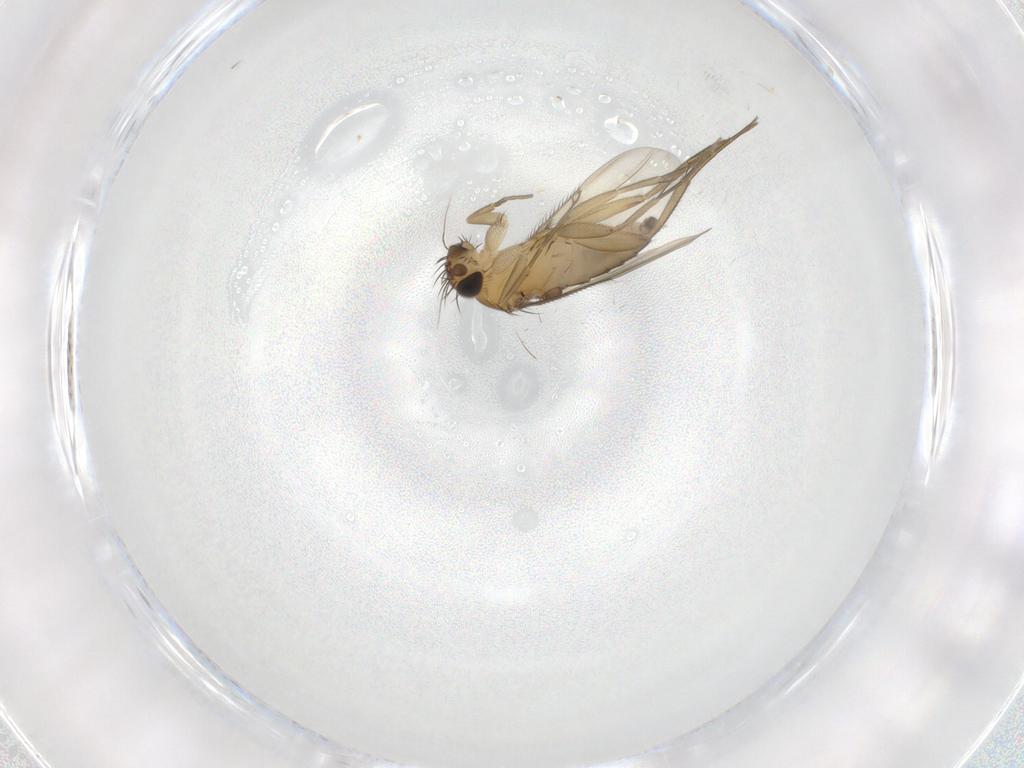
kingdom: Animalia
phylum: Arthropoda
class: Insecta
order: Diptera
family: Phoridae
